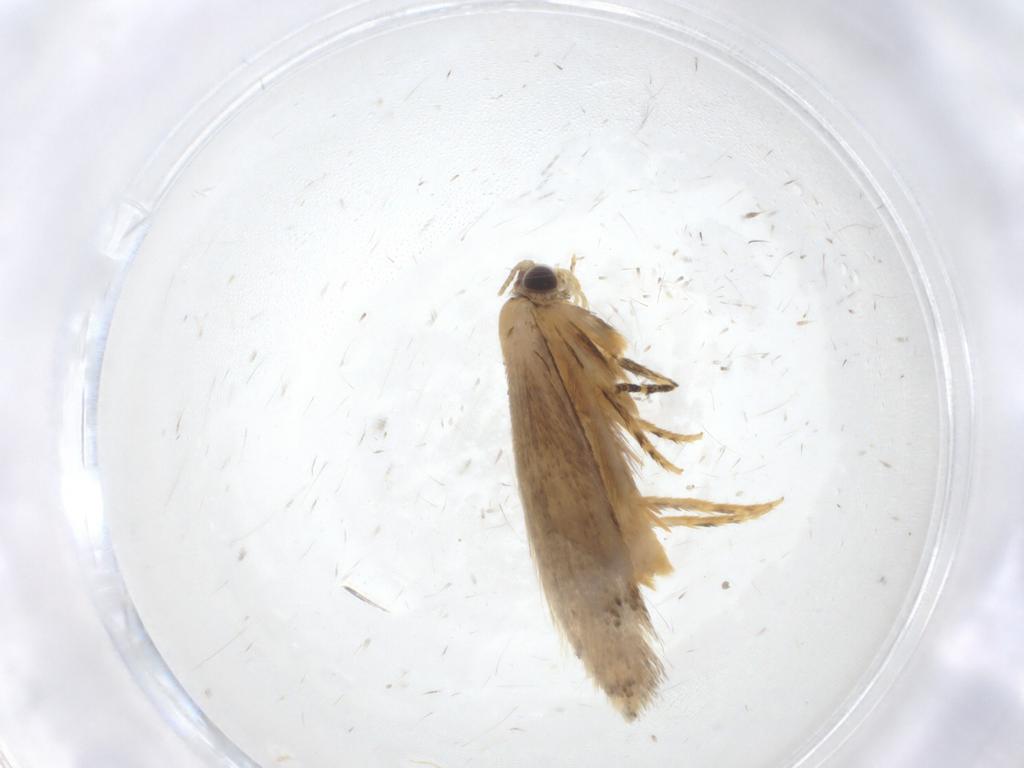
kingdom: Animalia
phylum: Arthropoda
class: Insecta
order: Lepidoptera
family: Tineidae
